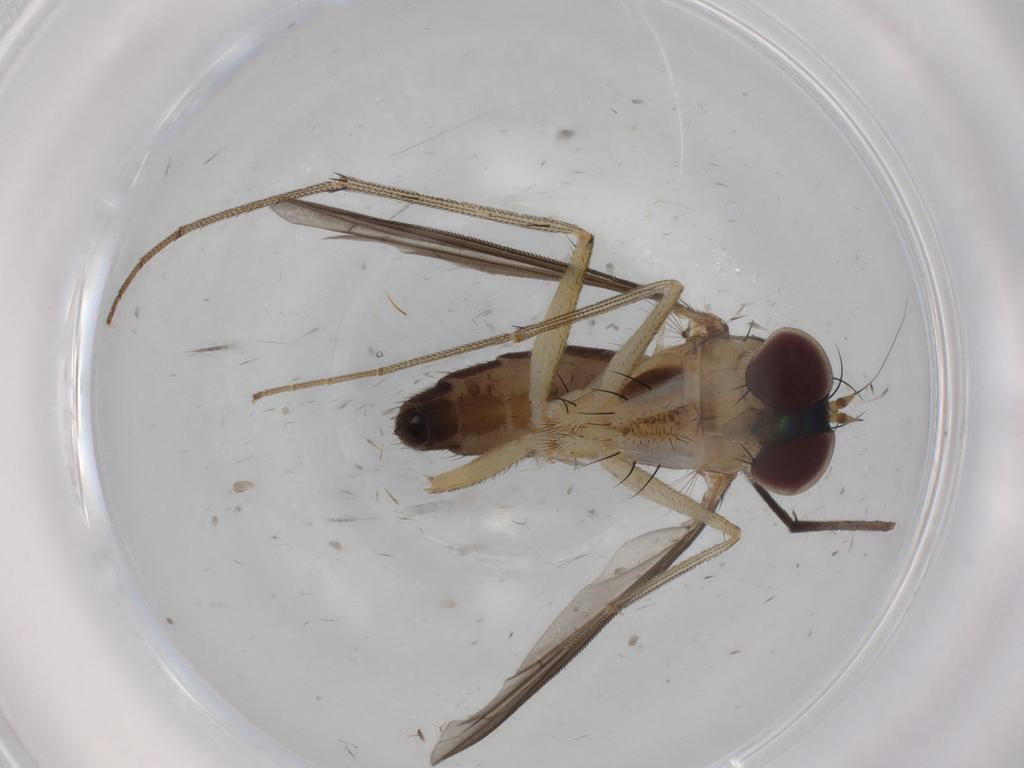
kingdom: Animalia
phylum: Arthropoda
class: Insecta
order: Diptera
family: Dolichopodidae
